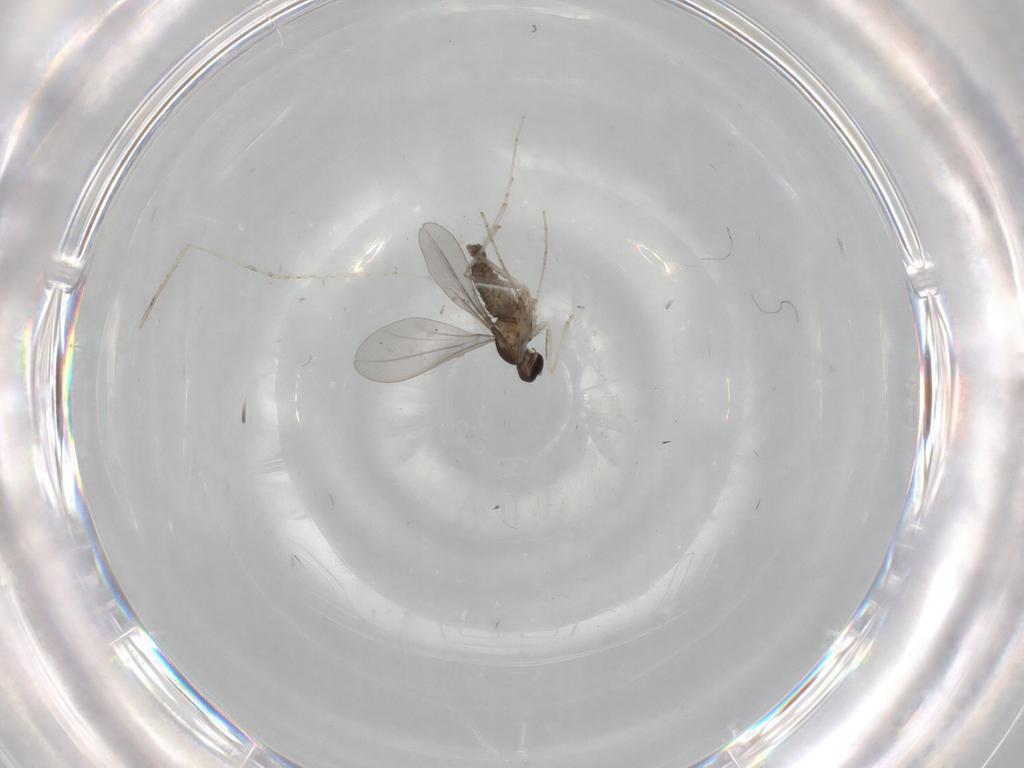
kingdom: Animalia
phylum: Arthropoda
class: Insecta
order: Diptera
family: Cecidomyiidae
